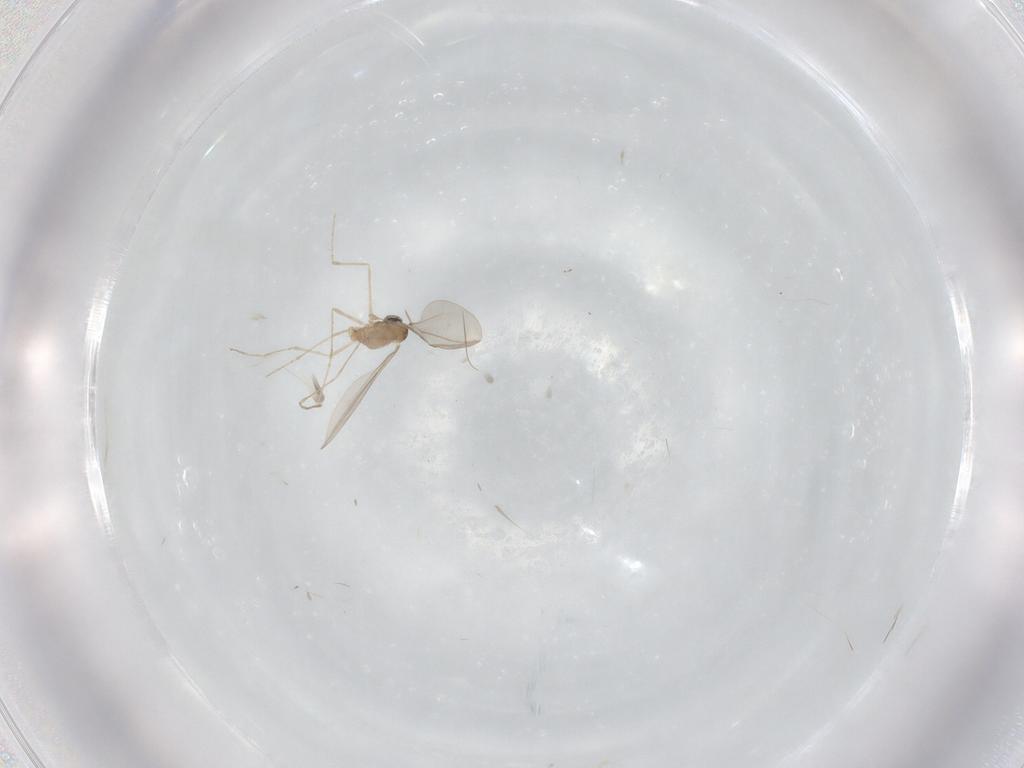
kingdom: Animalia
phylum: Arthropoda
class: Insecta
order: Diptera
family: Cecidomyiidae
